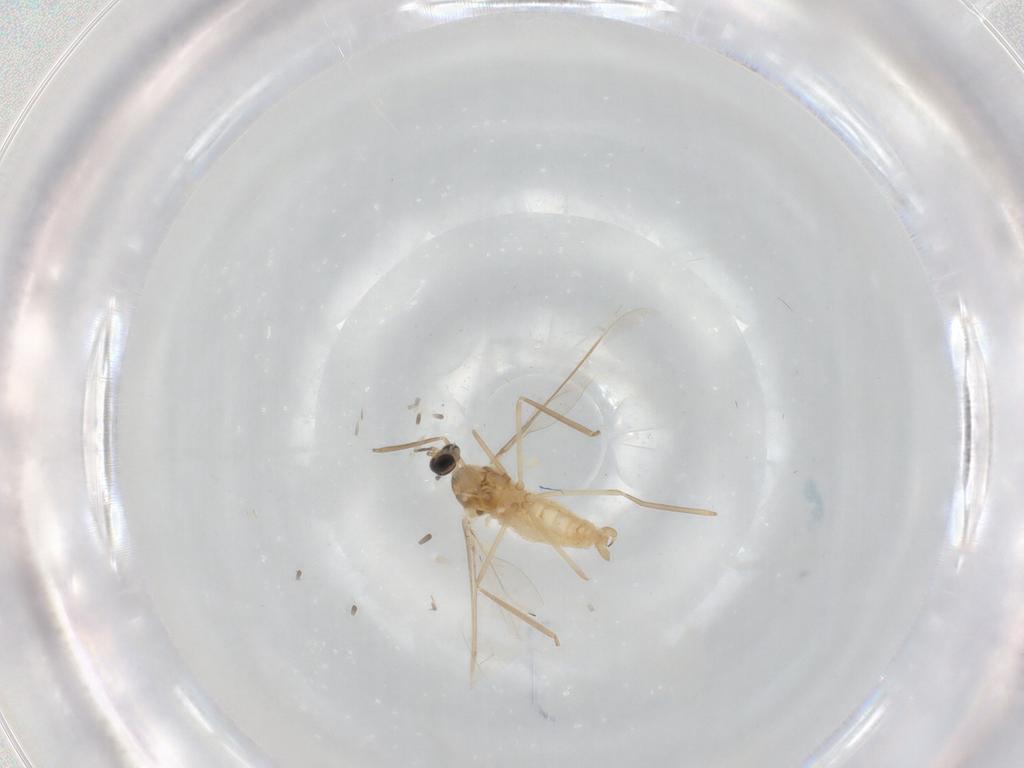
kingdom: Animalia
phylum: Arthropoda
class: Insecta
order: Diptera
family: Cecidomyiidae
